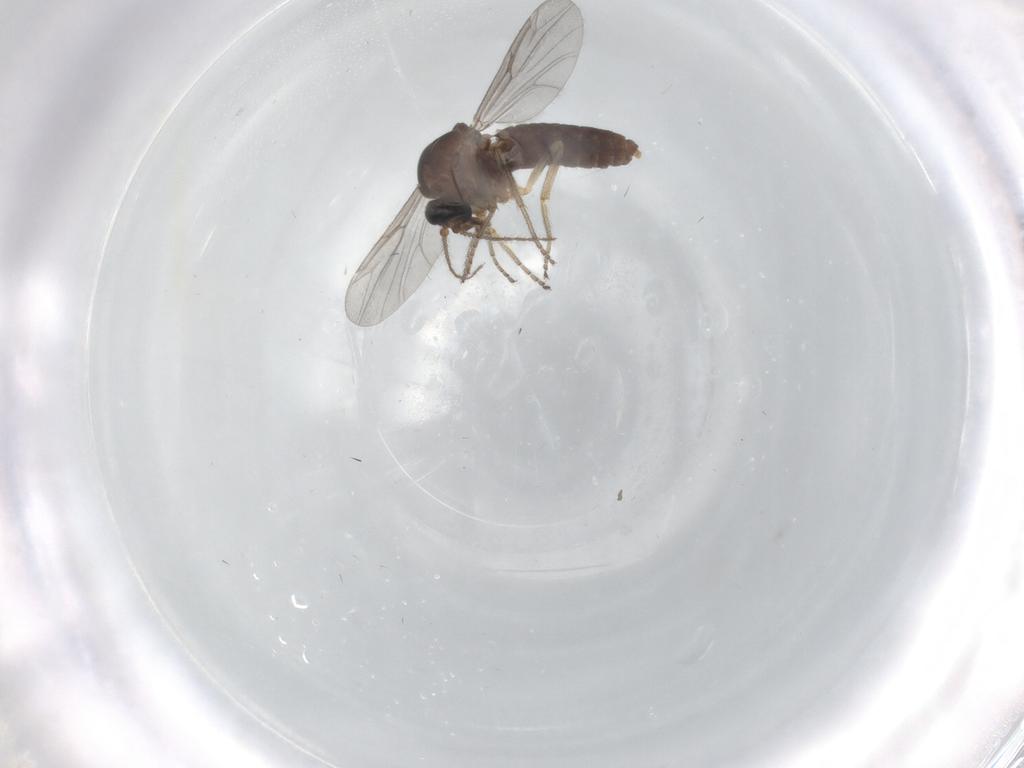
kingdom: Animalia
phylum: Arthropoda
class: Insecta
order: Diptera
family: Ceratopogonidae
